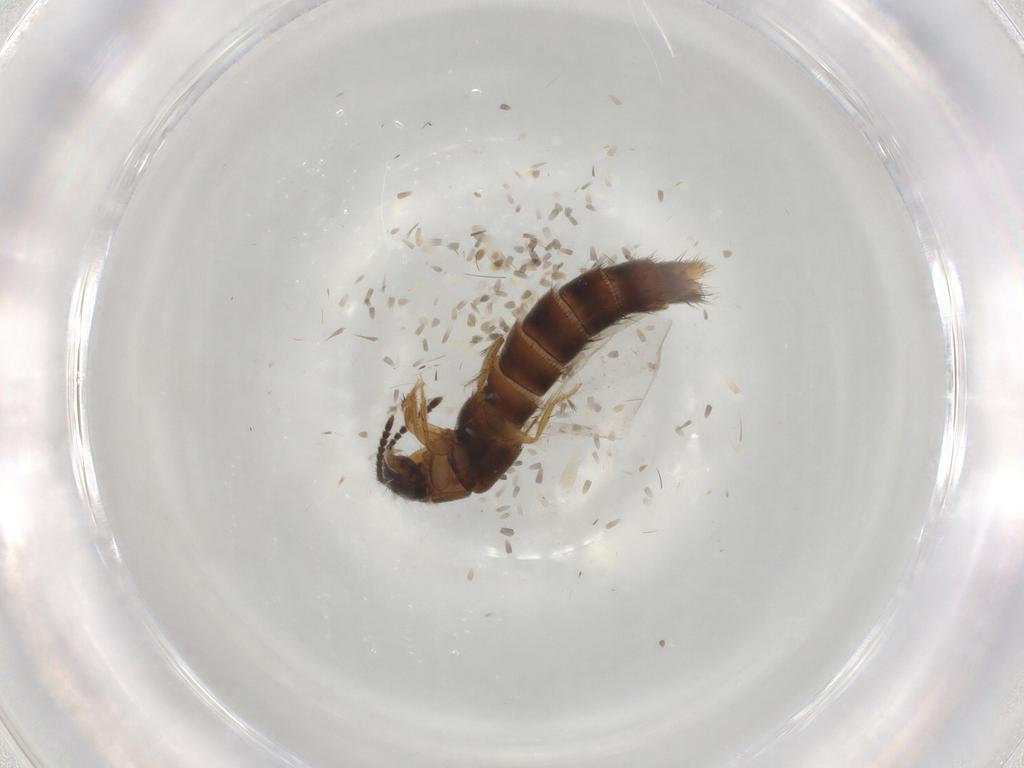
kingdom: Animalia
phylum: Arthropoda
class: Insecta
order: Coleoptera
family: Staphylinidae
